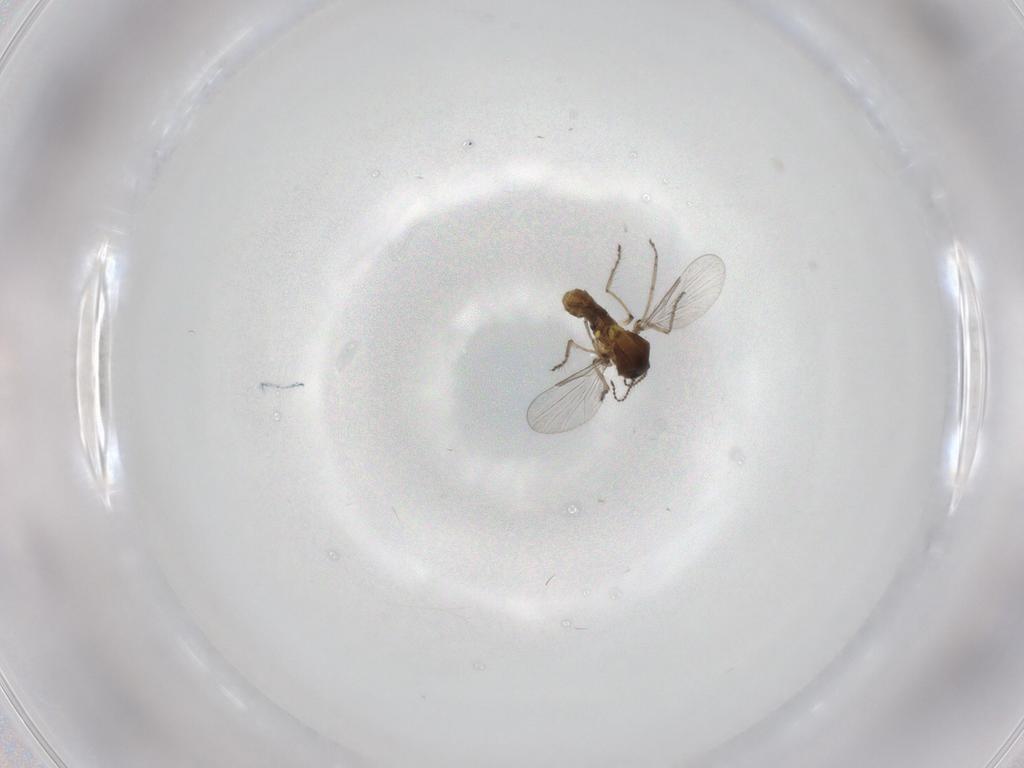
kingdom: Animalia
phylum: Arthropoda
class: Insecta
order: Diptera
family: Ceratopogonidae
